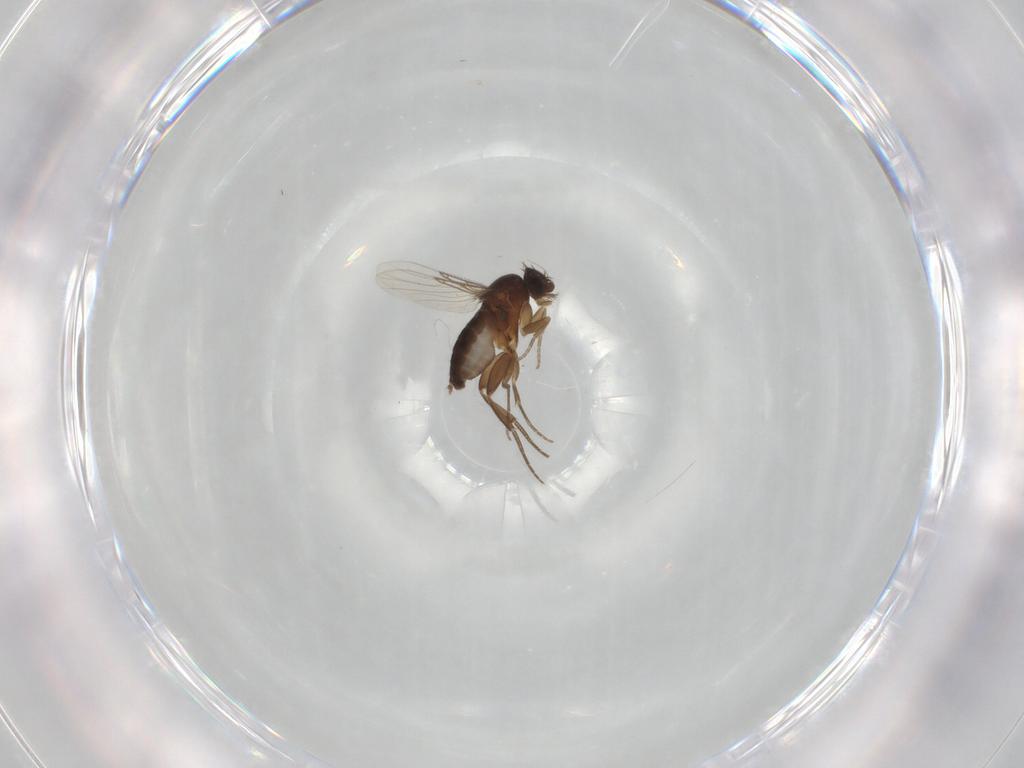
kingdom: Animalia
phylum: Arthropoda
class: Insecta
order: Diptera
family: Phoridae
